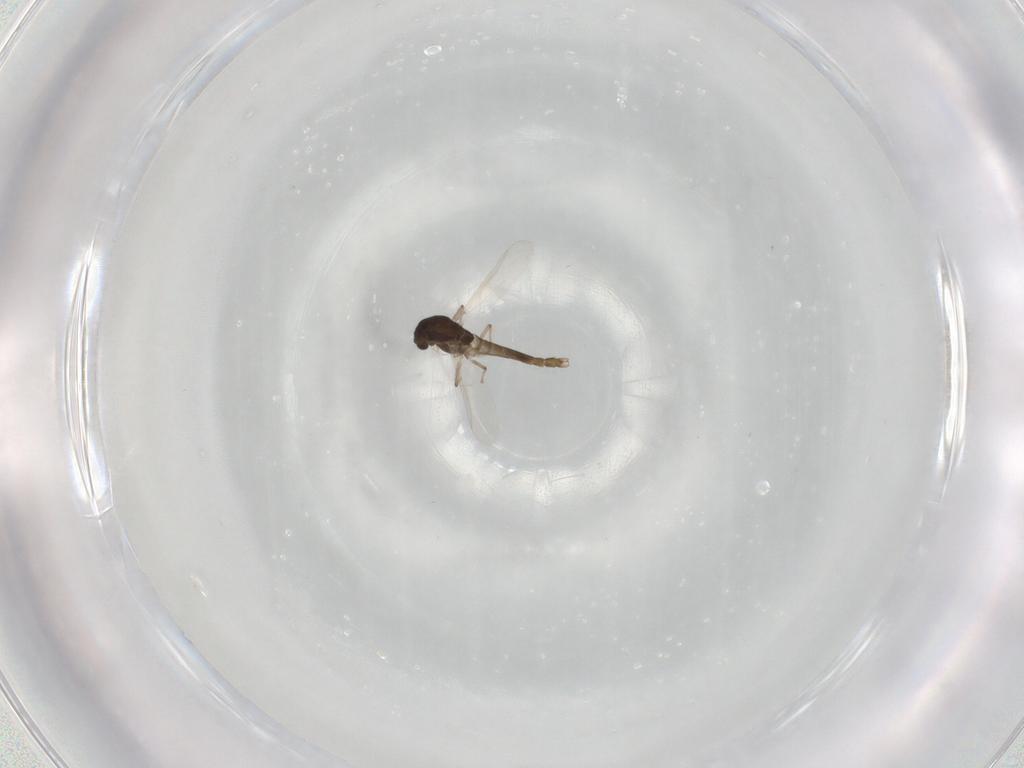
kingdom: Animalia
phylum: Arthropoda
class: Insecta
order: Diptera
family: Chironomidae
